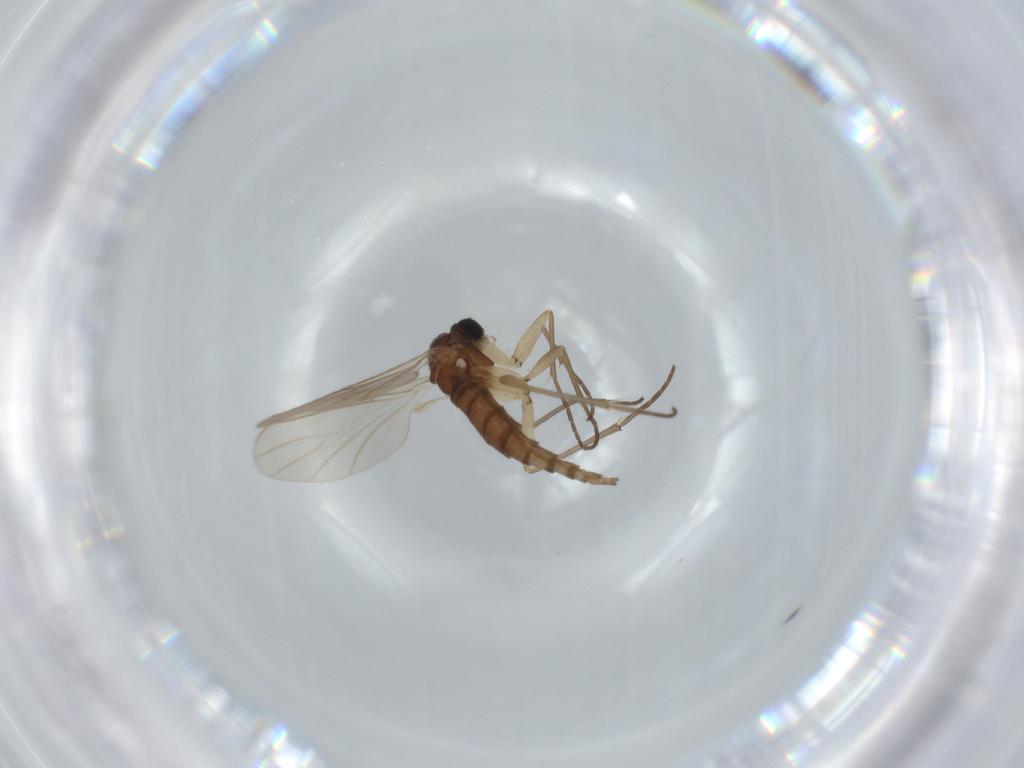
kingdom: Animalia
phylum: Arthropoda
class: Insecta
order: Diptera
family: Sciaridae
